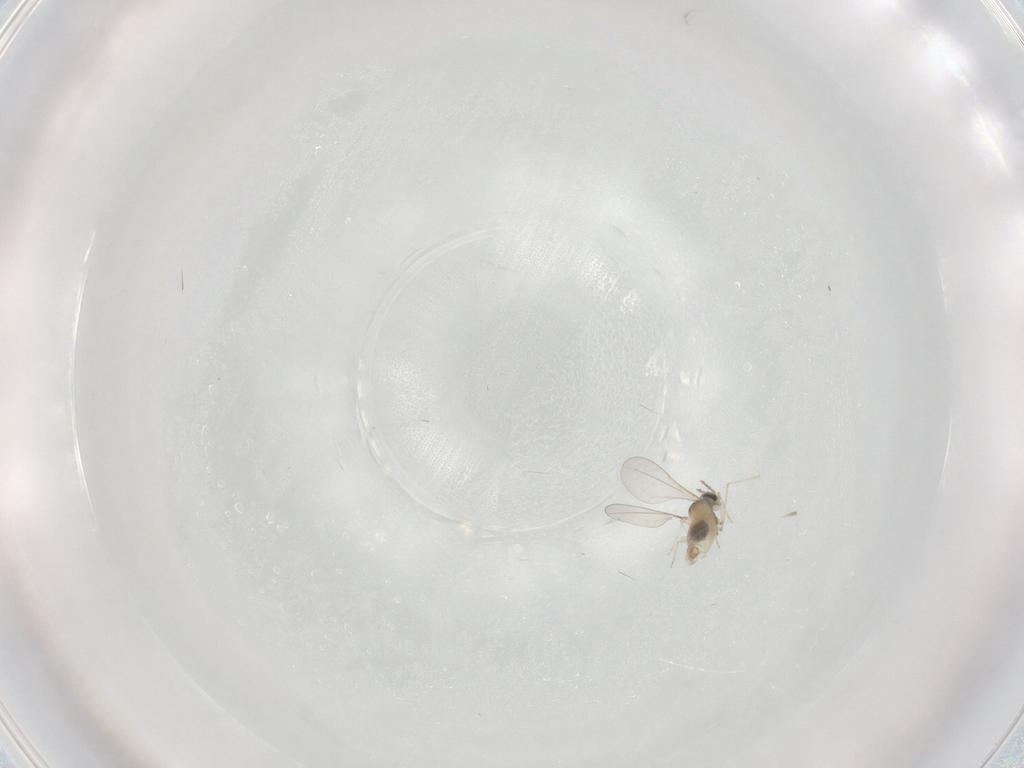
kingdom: Animalia
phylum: Arthropoda
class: Insecta
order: Diptera
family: Cecidomyiidae
